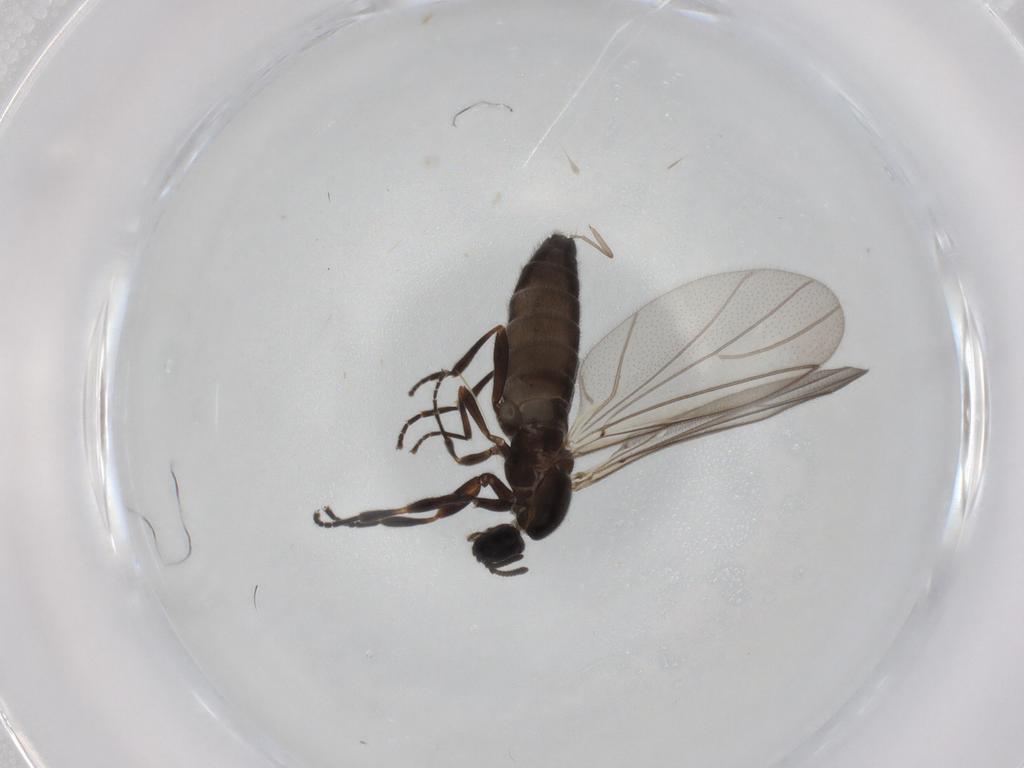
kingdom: Animalia
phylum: Arthropoda
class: Insecta
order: Diptera
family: Scatopsidae
